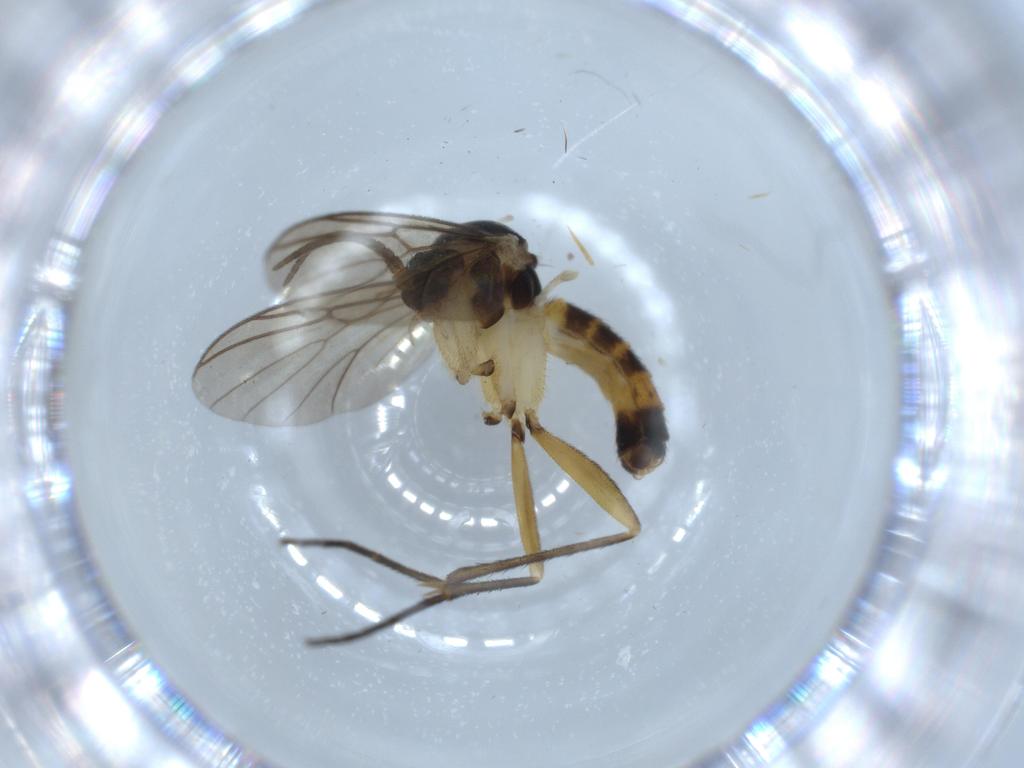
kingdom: Animalia
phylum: Arthropoda
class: Insecta
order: Diptera
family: Mycetophilidae
